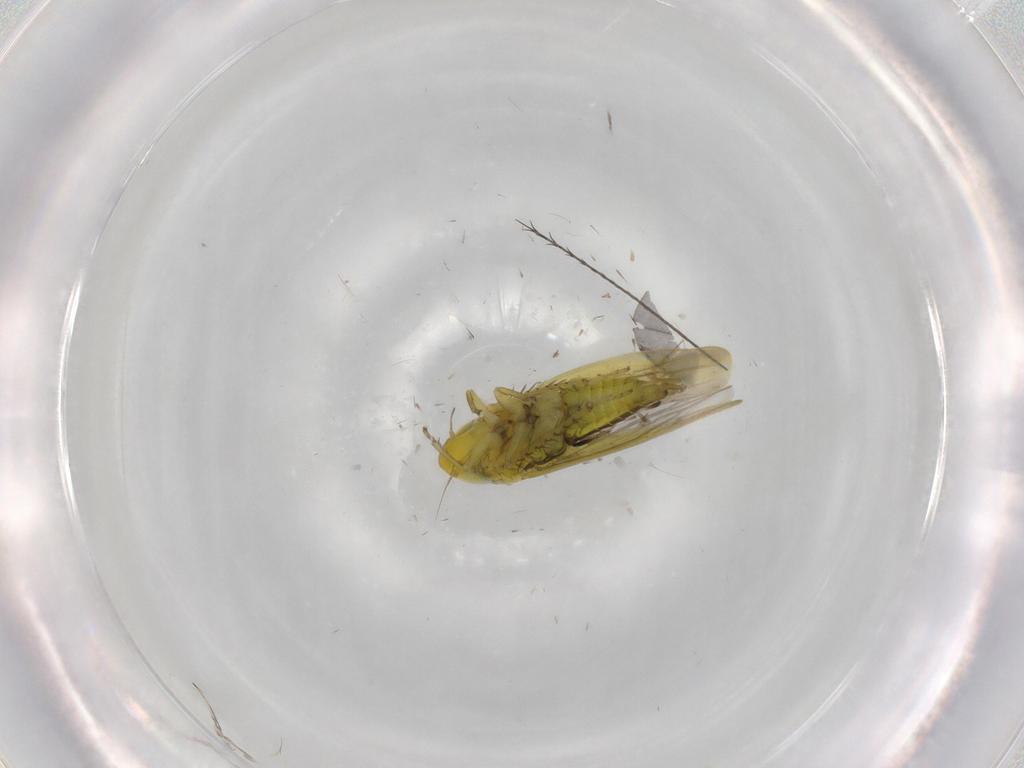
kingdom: Animalia
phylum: Arthropoda
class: Insecta
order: Hemiptera
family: Cicadellidae
